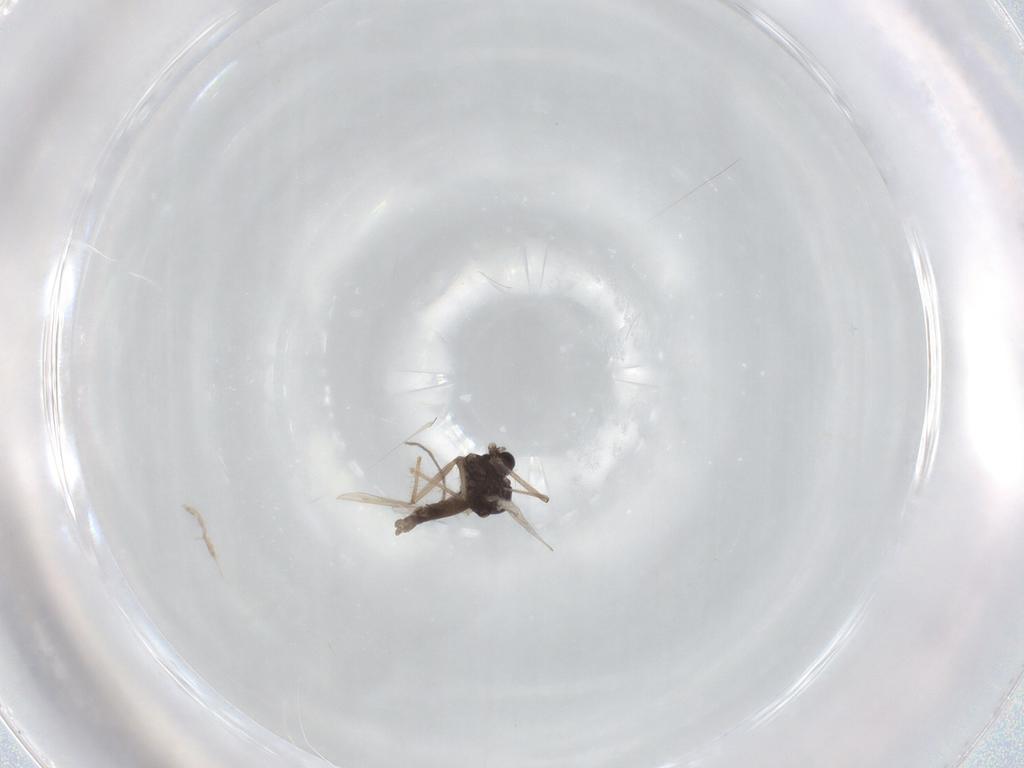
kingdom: Animalia
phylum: Arthropoda
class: Insecta
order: Diptera
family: Chironomidae
